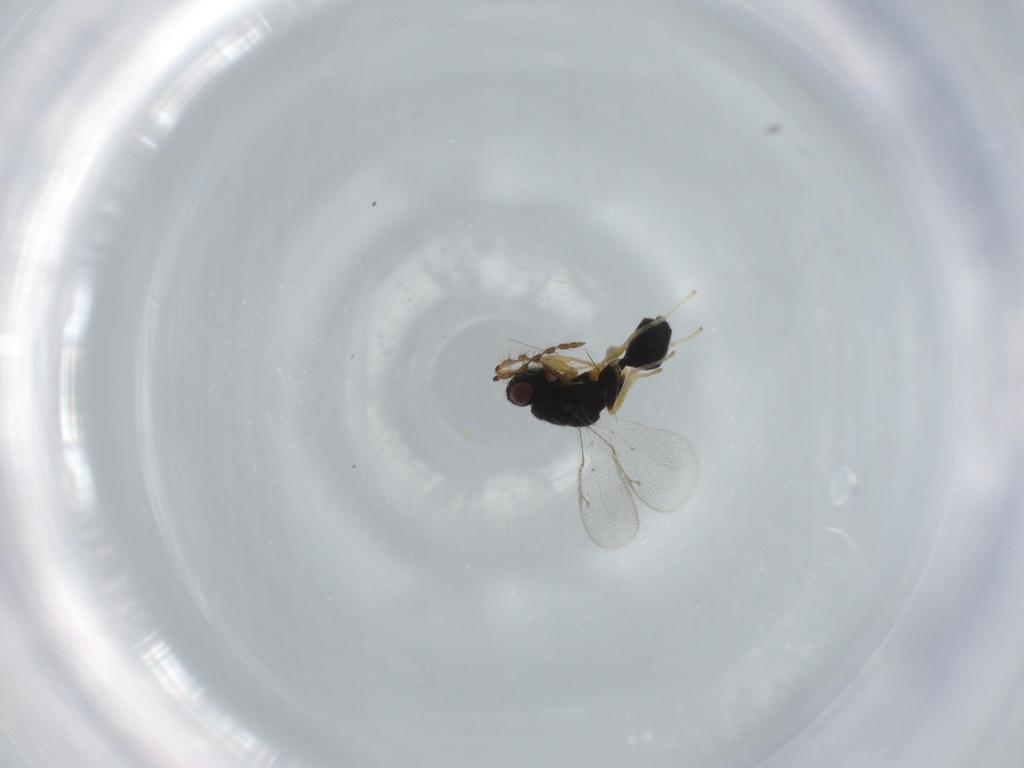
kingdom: Animalia
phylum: Arthropoda
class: Insecta
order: Hymenoptera
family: Eurytomidae
